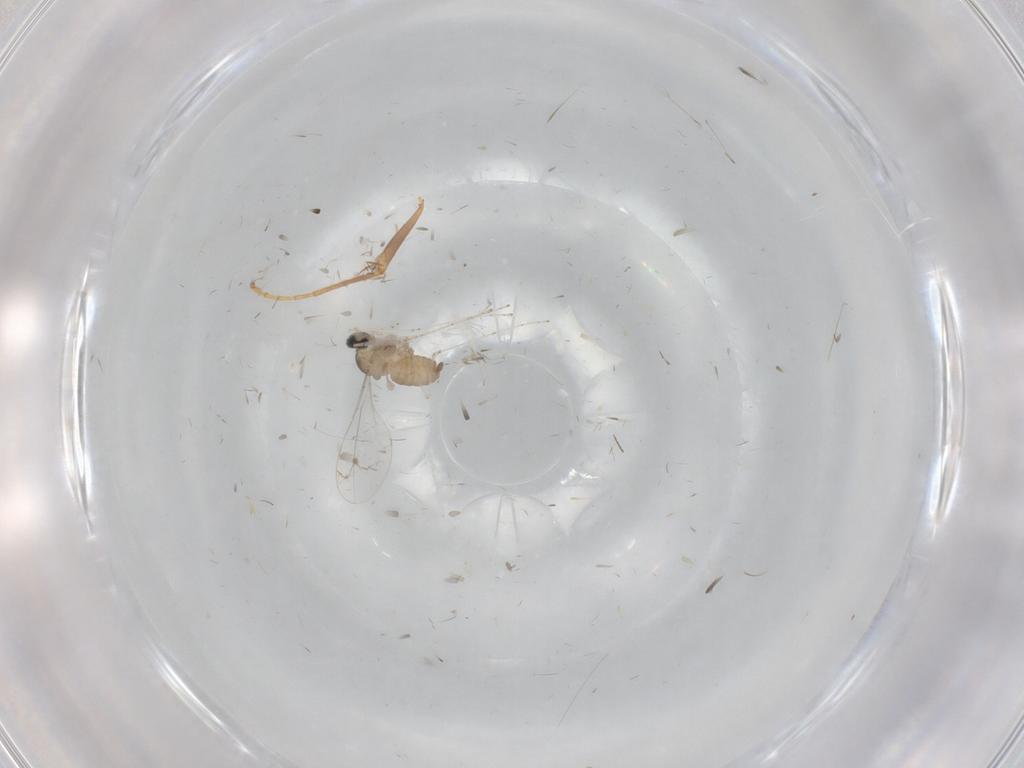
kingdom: Animalia
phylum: Arthropoda
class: Insecta
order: Diptera
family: Cecidomyiidae
